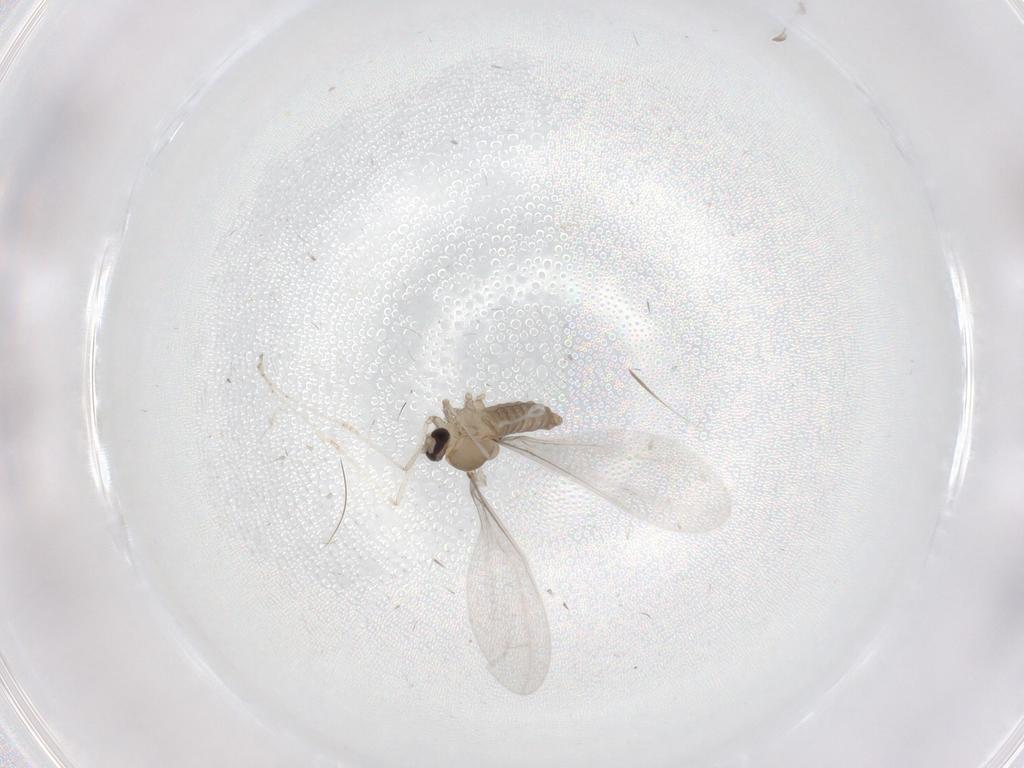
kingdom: Animalia
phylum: Arthropoda
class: Insecta
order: Diptera
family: Cecidomyiidae
